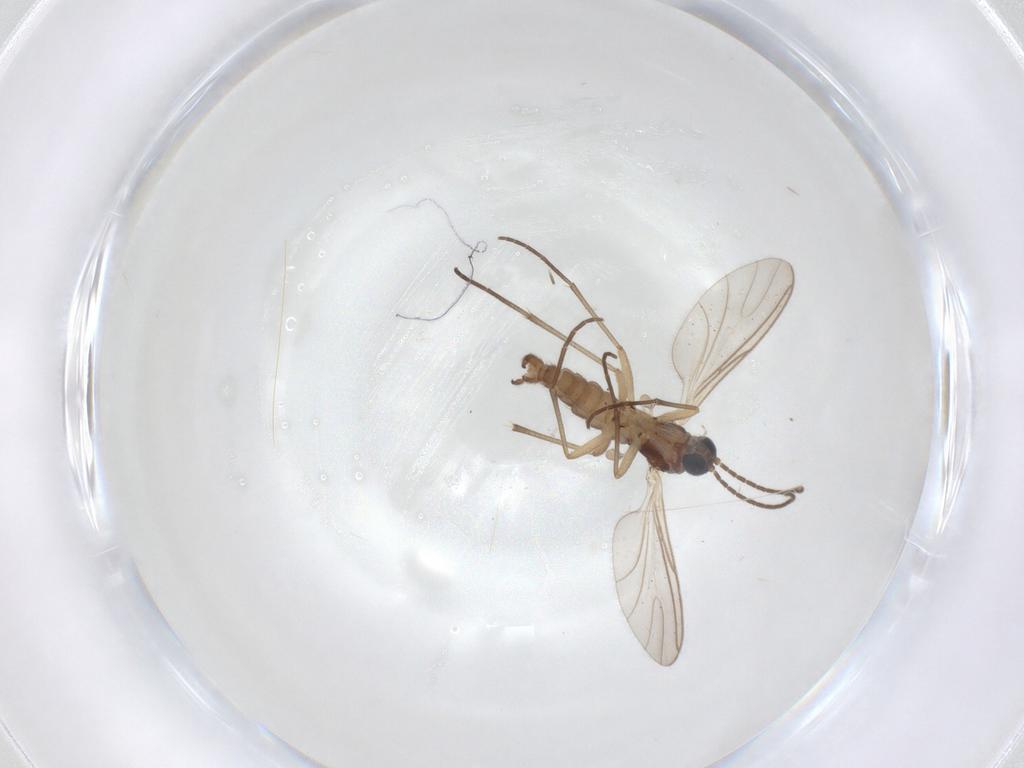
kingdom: Animalia
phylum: Arthropoda
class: Insecta
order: Diptera
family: Sciaridae
